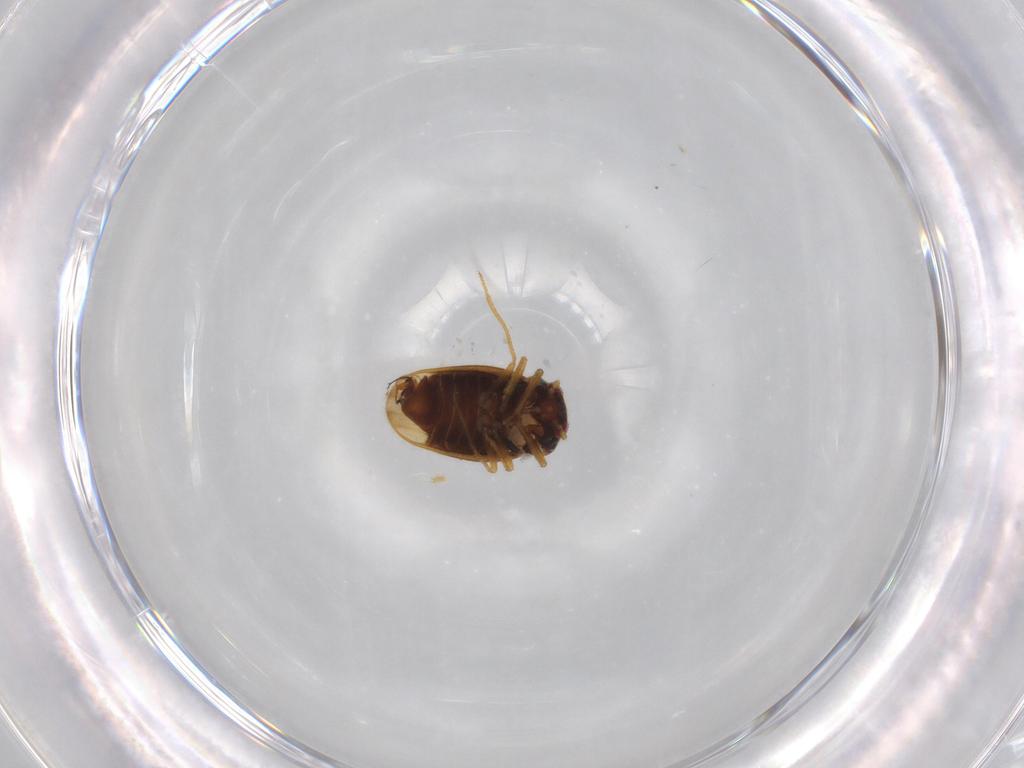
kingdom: Animalia
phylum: Arthropoda
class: Insecta
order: Hemiptera
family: Schizopteridae
